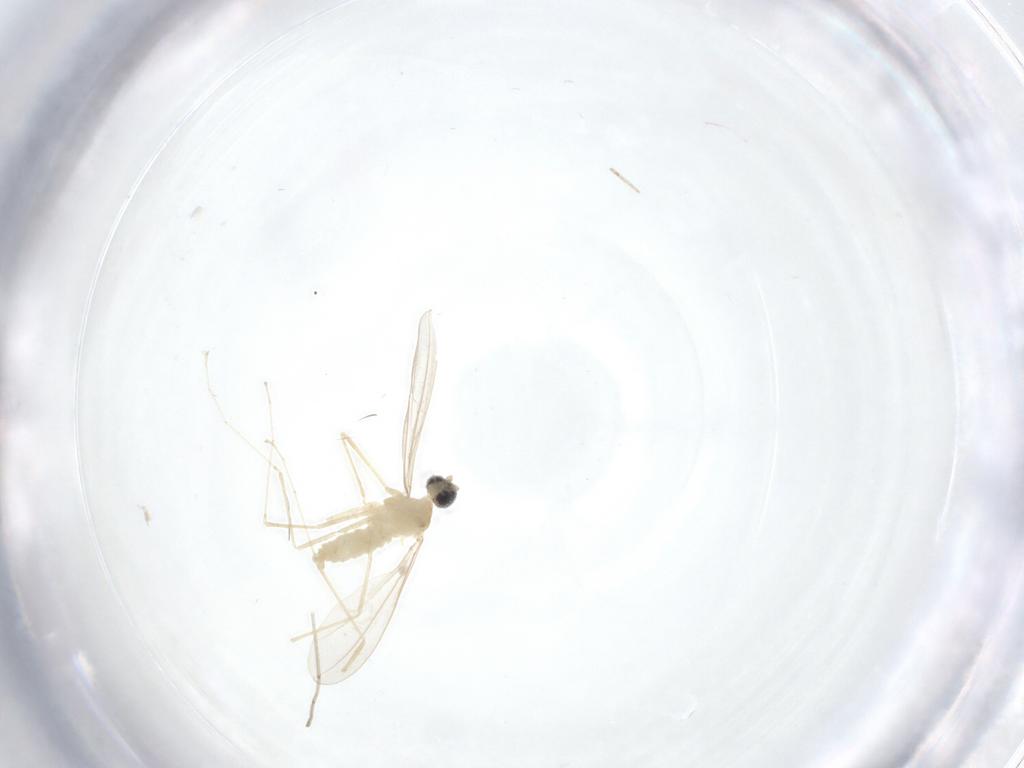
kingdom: Animalia
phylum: Arthropoda
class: Insecta
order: Diptera
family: Cecidomyiidae
